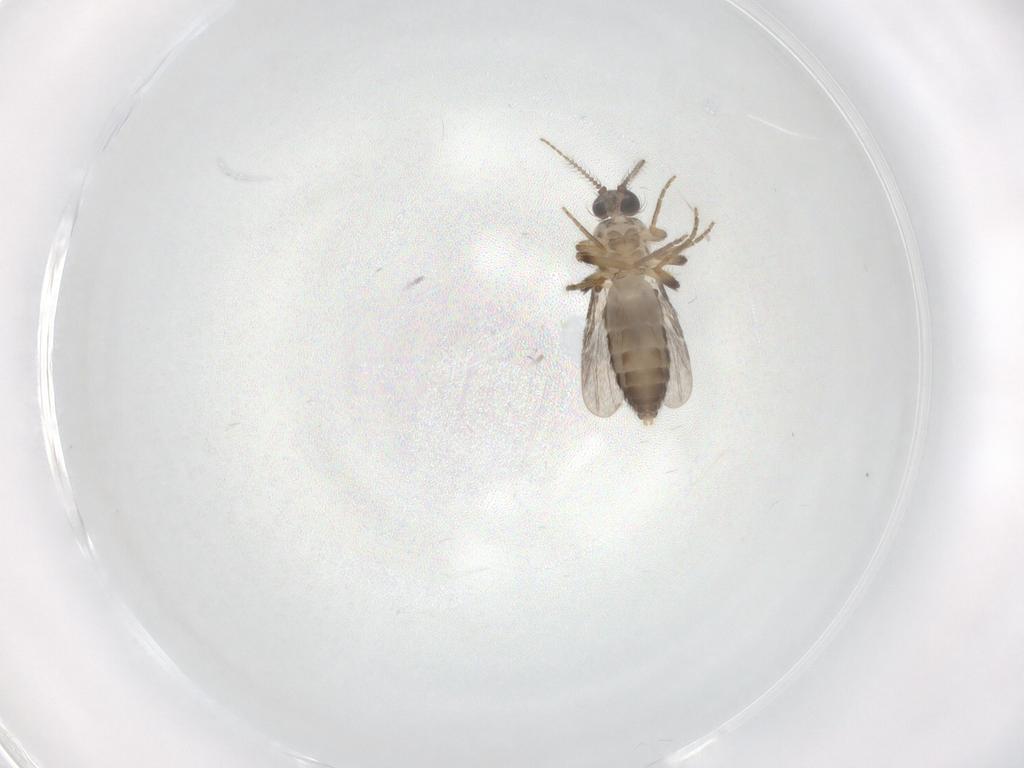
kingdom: Animalia
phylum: Arthropoda
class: Insecta
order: Diptera
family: Ceratopogonidae
